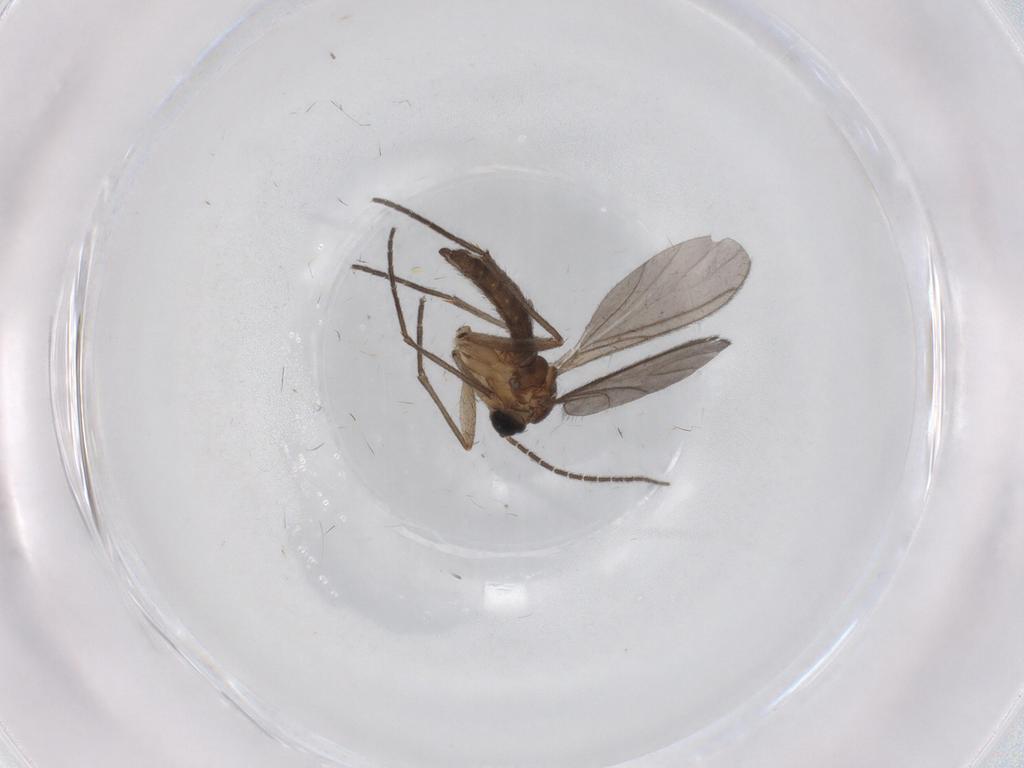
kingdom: Animalia
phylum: Arthropoda
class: Insecta
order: Diptera
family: Cecidomyiidae
